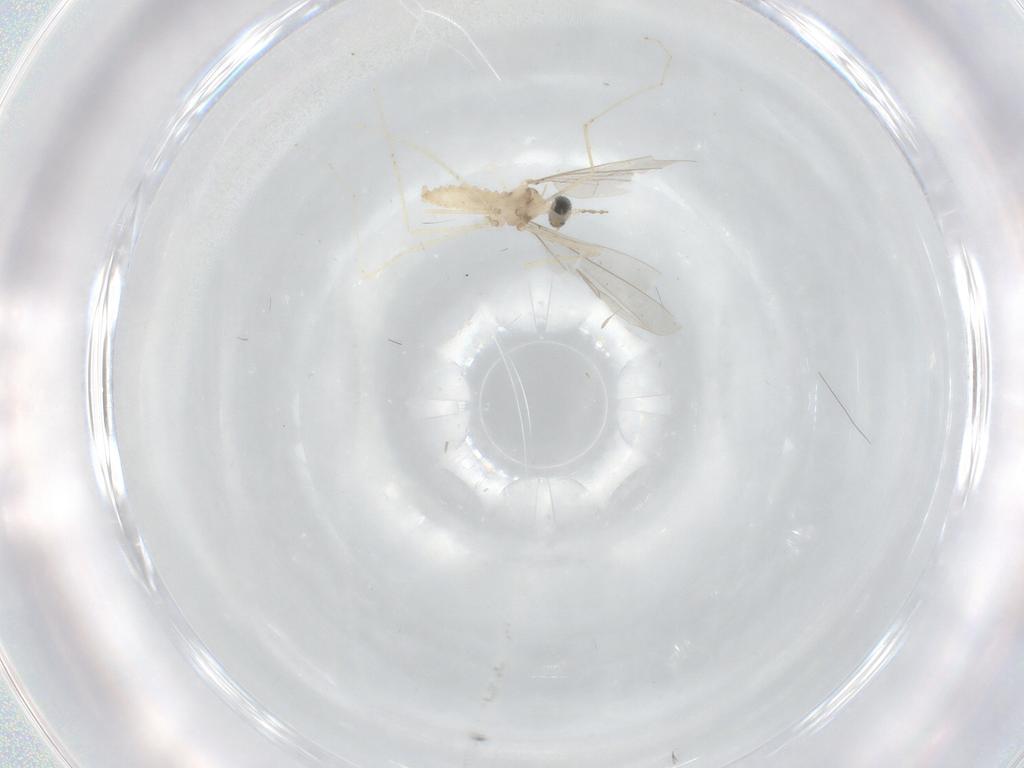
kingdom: Animalia
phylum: Arthropoda
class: Insecta
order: Diptera
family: Cecidomyiidae
